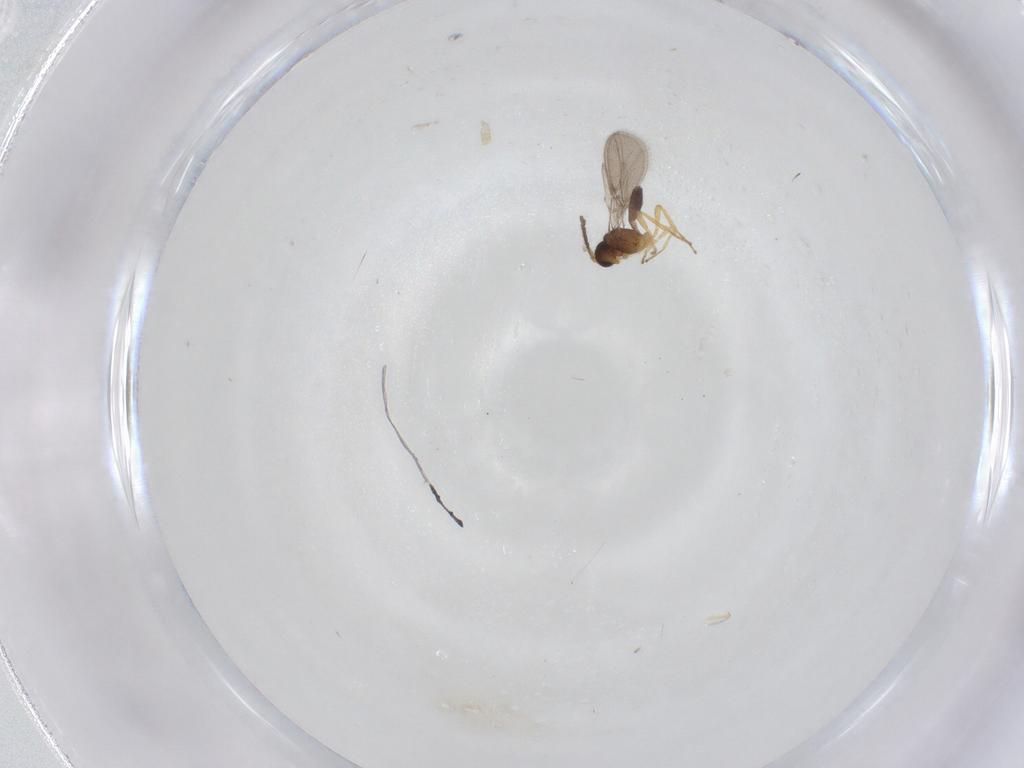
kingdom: Animalia
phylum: Arthropoda
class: Insecta
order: Hymenoptera
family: Braconidae
